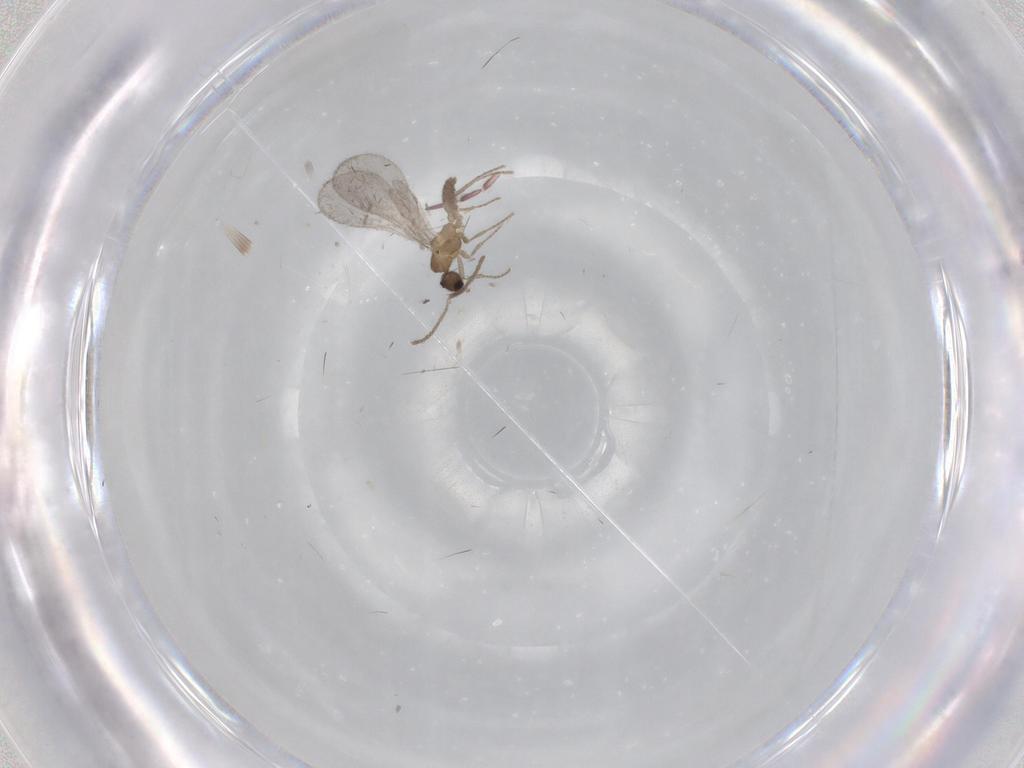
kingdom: Animalia
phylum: Arthropoda
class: Insecta
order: Hymenoptera
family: Formicidae
